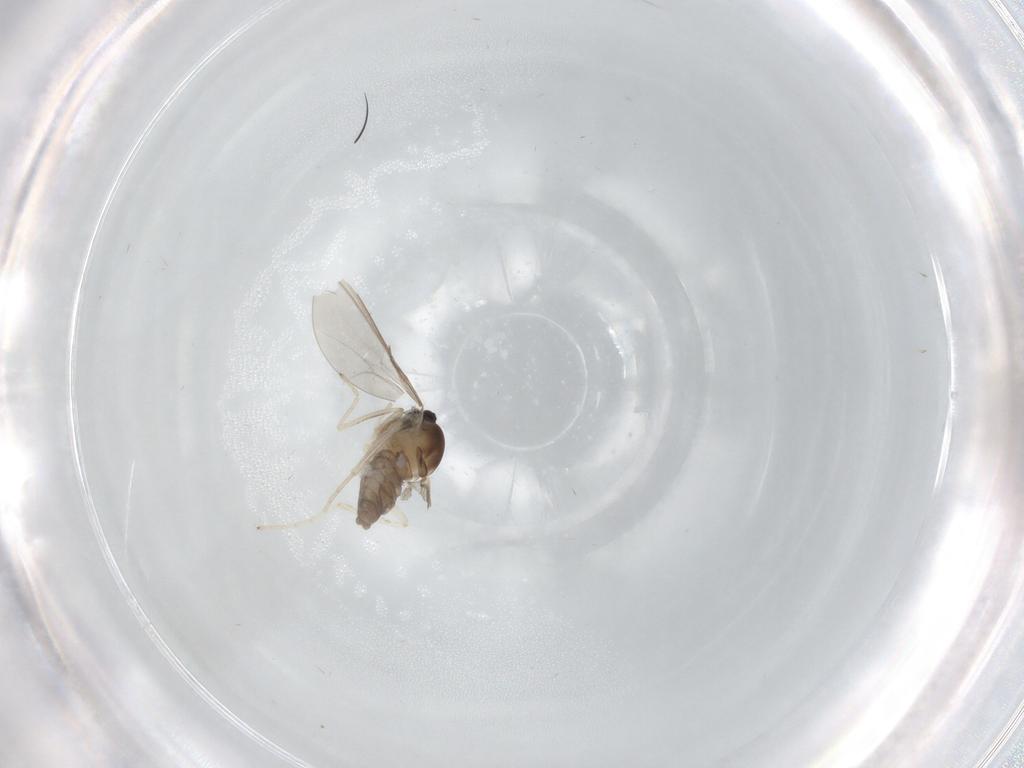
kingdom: Animalia
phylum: Arthropoda
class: Insecta
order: Diptera
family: Cecidomyiidae
